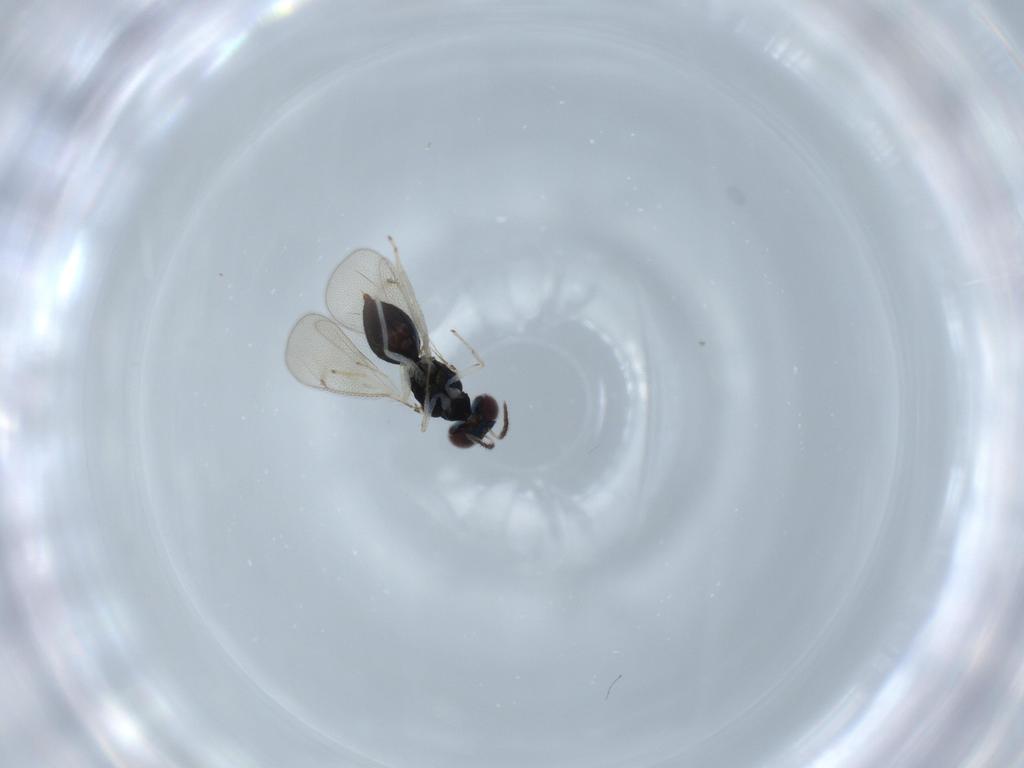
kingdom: Animalia
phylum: Arthropoda
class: Insecta
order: Hymenoptera
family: Aphelinidae
